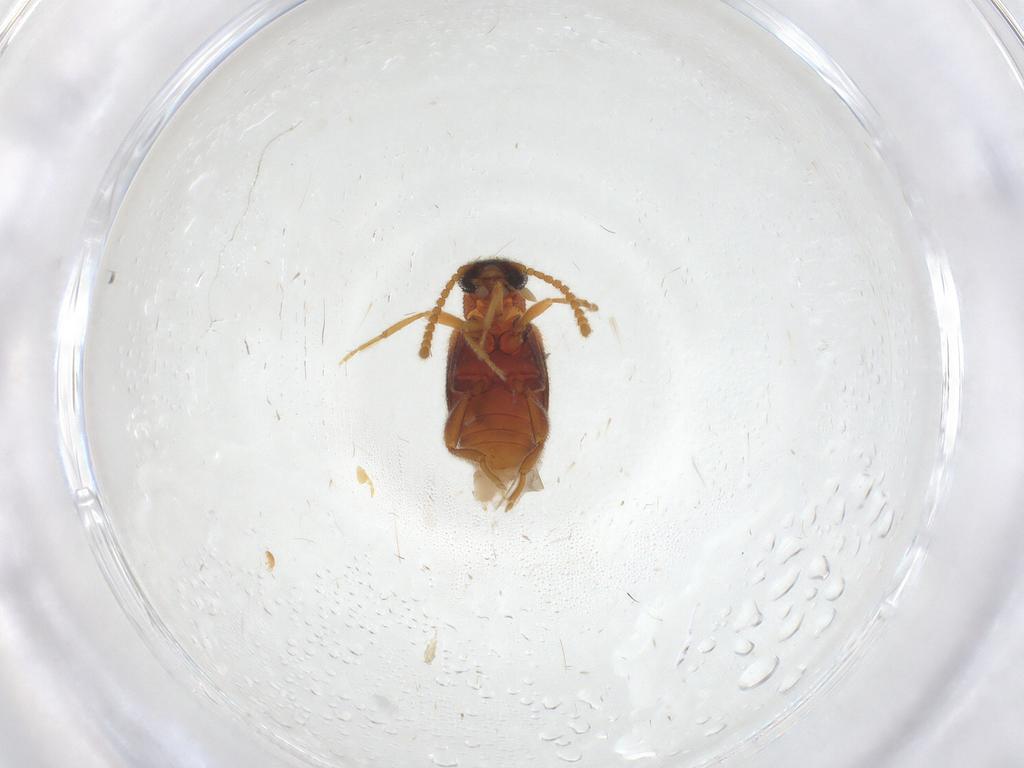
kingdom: Animalia
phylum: Arthropoda
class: Insecta
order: Coleoptera
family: Aderidae
